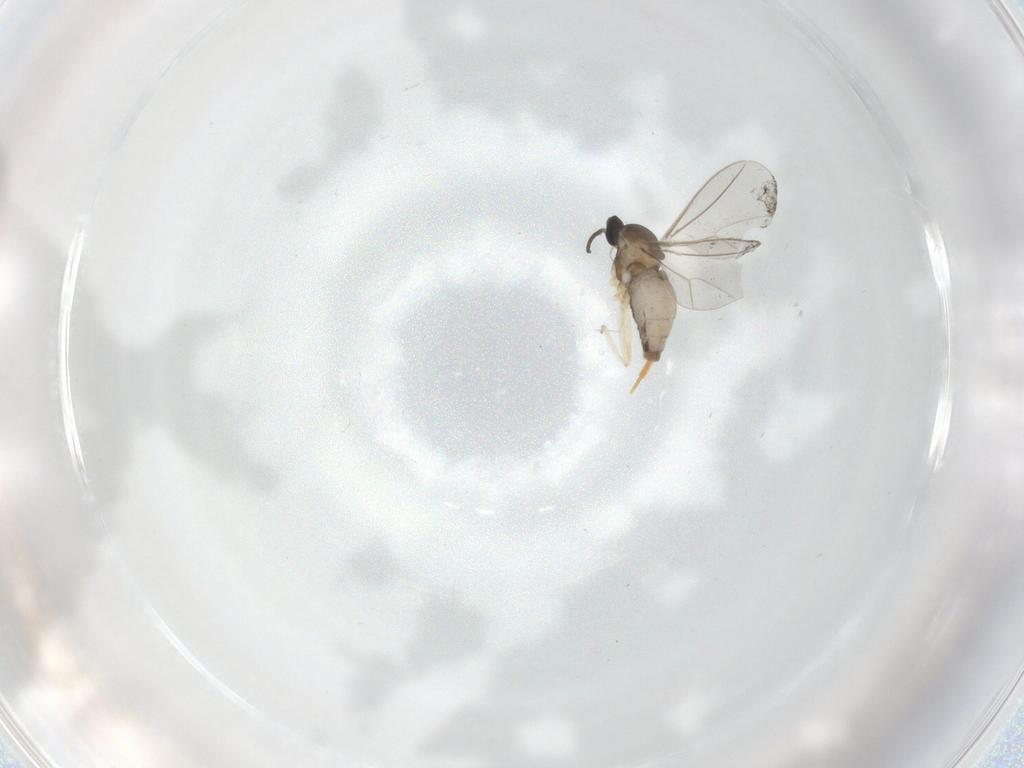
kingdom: Animalia
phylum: Arthropoda
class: Insecta
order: Diptera
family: Cecidomyiidae
